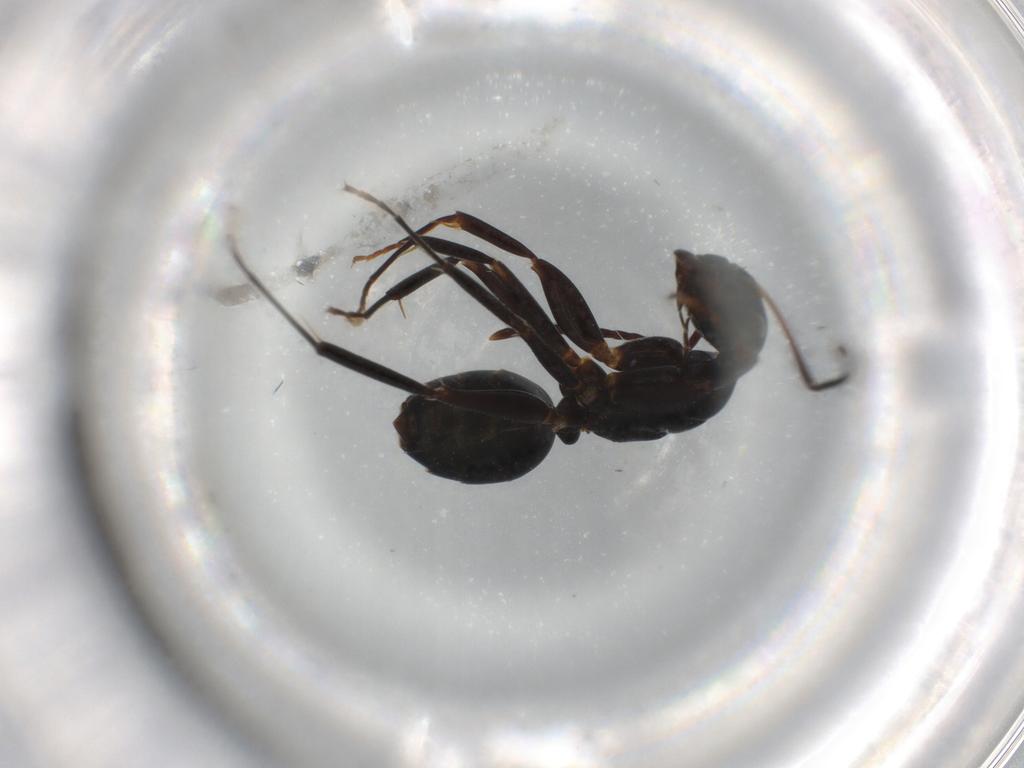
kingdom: Animalia
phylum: Arthropoda
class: Insecta
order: Hymenoptera
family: Formicidae
